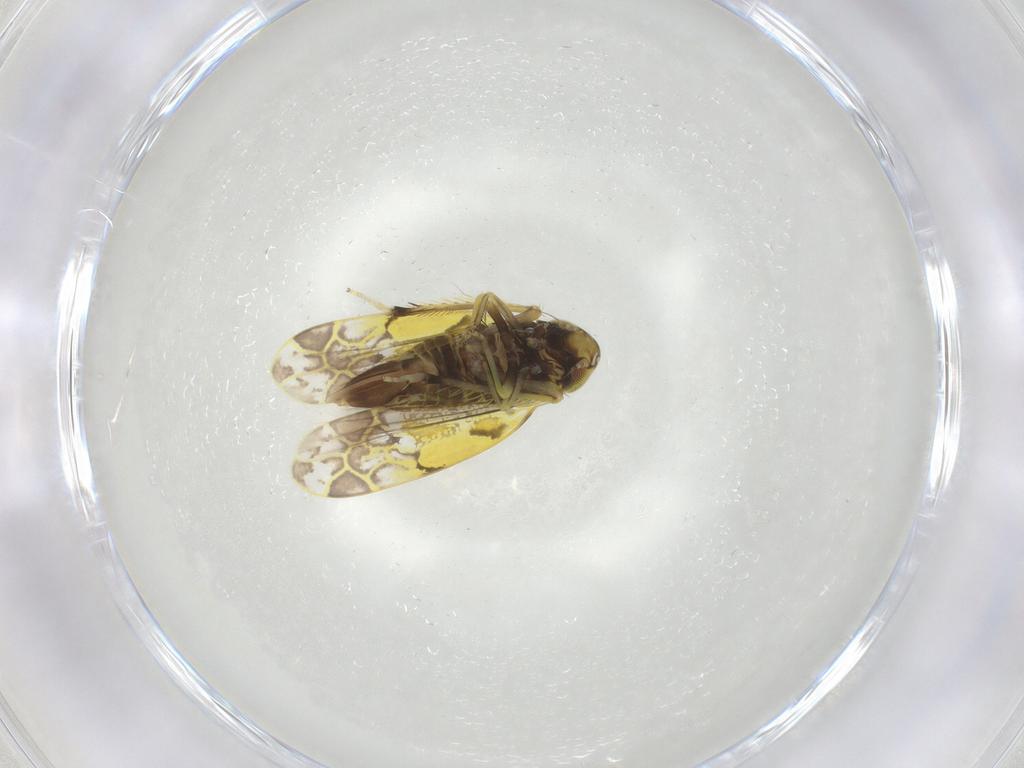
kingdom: Animalia
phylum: Arthropoda
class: Insecta
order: Hemiptera
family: Cicadellidae
